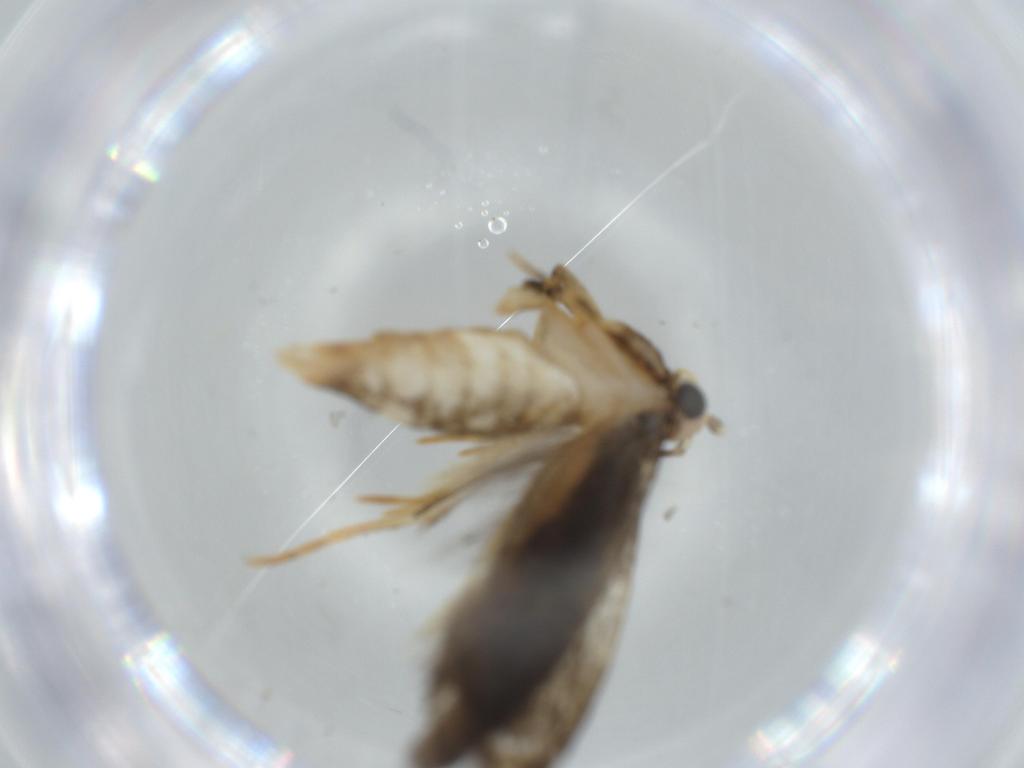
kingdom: Animalia
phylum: Arthropoda
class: Insecta
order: Lepidoptera
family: Tineidae
